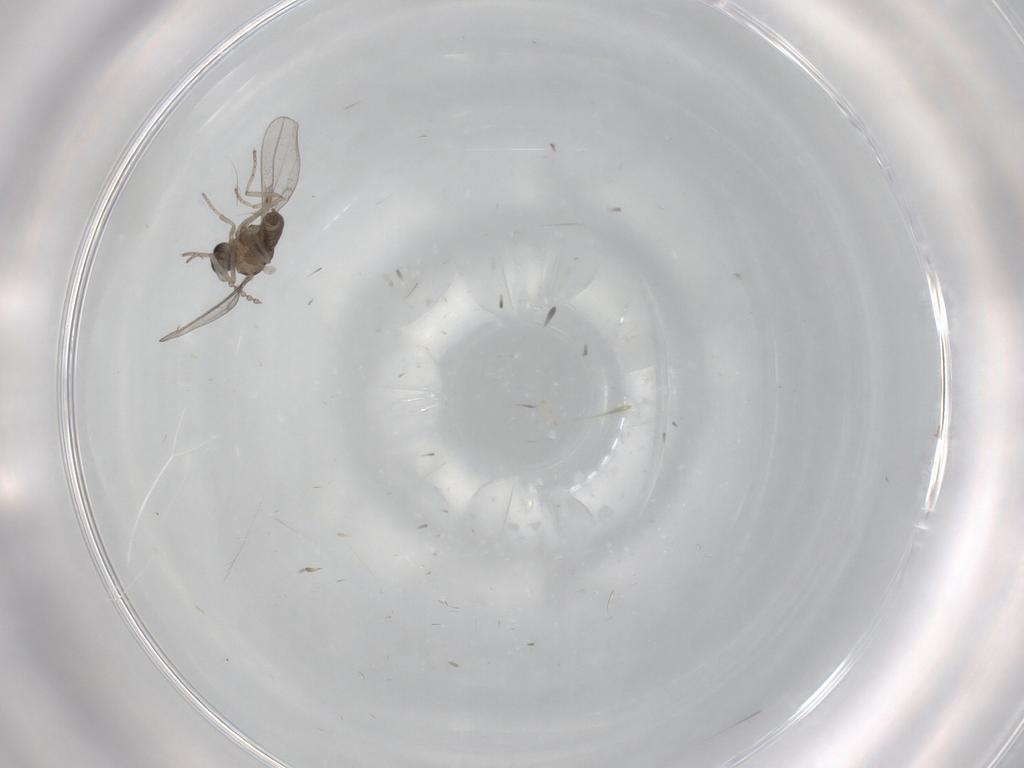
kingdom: Animalia
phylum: Arthropoda
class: Insecta
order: Diptera
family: Cecidomyiidae
